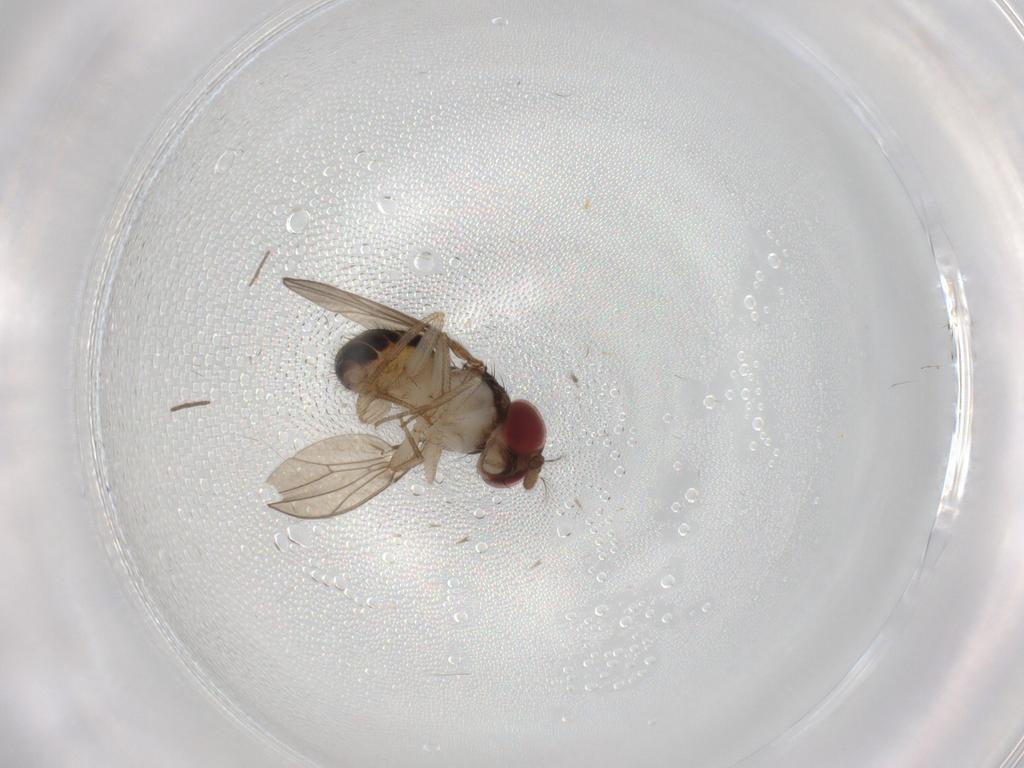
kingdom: Animalia
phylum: Arthropoda
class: Insecta
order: Diptera
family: Drosophilidae
